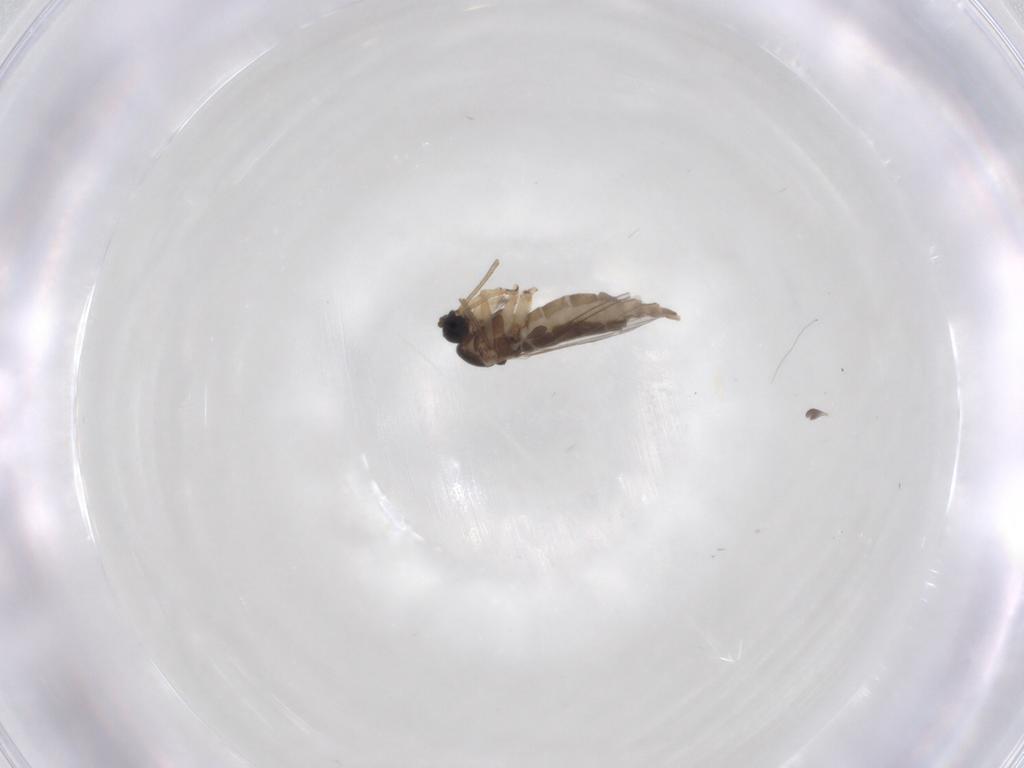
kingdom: Animalia
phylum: Arthropoda
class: Insecta
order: Diptera
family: Sciaridae
